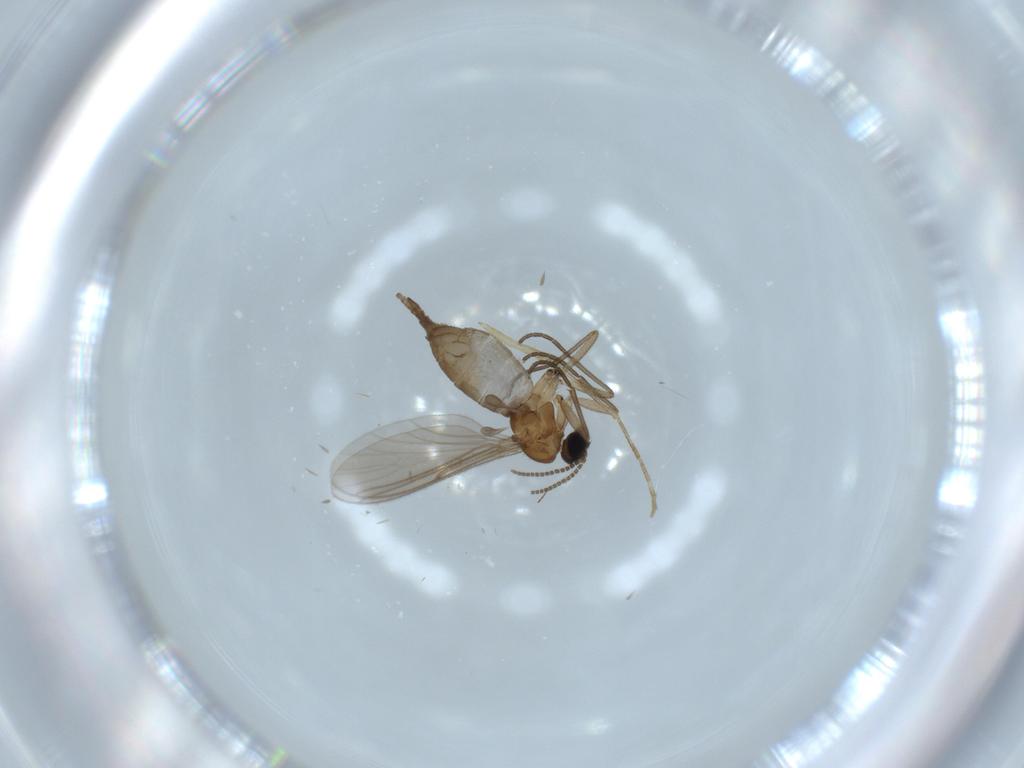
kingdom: Animalia
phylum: Arthropoda
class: Insecta
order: Diptera
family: Sciaridae
